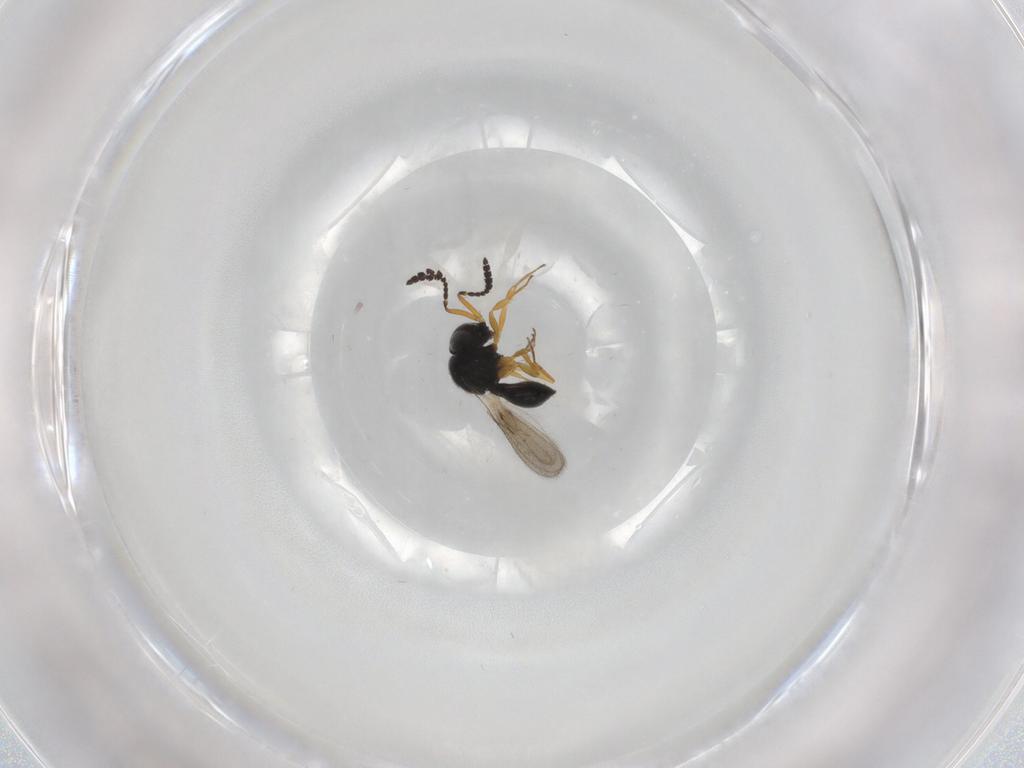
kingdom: Animalia
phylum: Arthropoda
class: Insecta
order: Hymenoptera
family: Scelionidae
